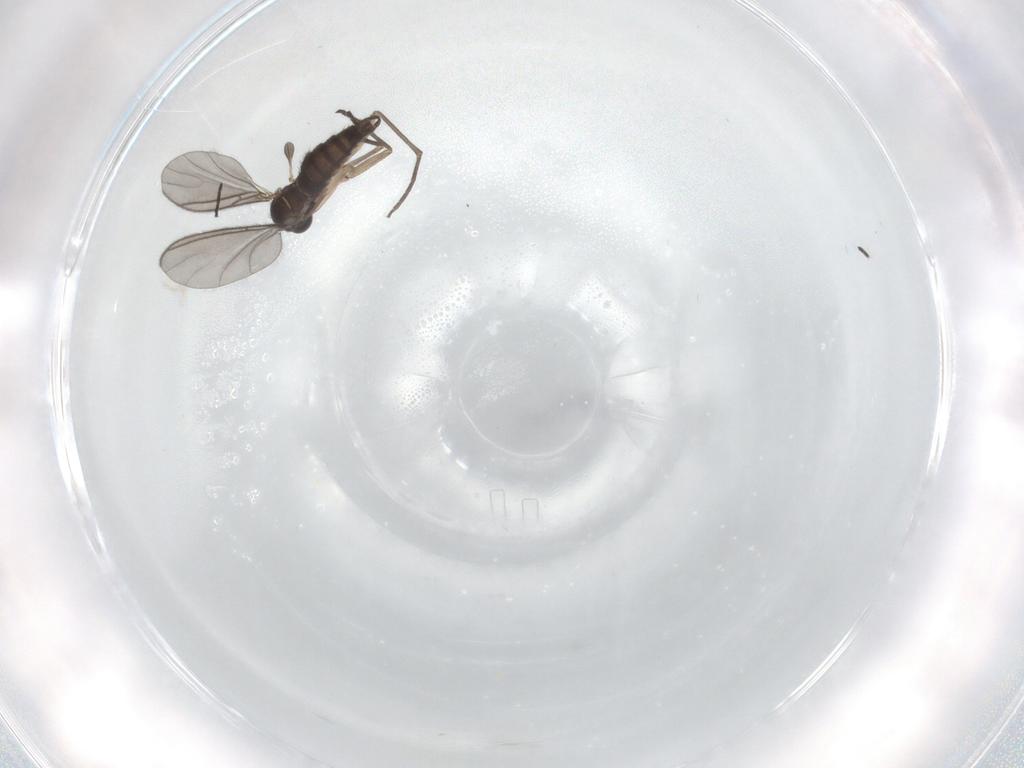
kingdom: Animalia
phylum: Arthropoda
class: Insecta
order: Diptera
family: Sciaridae
